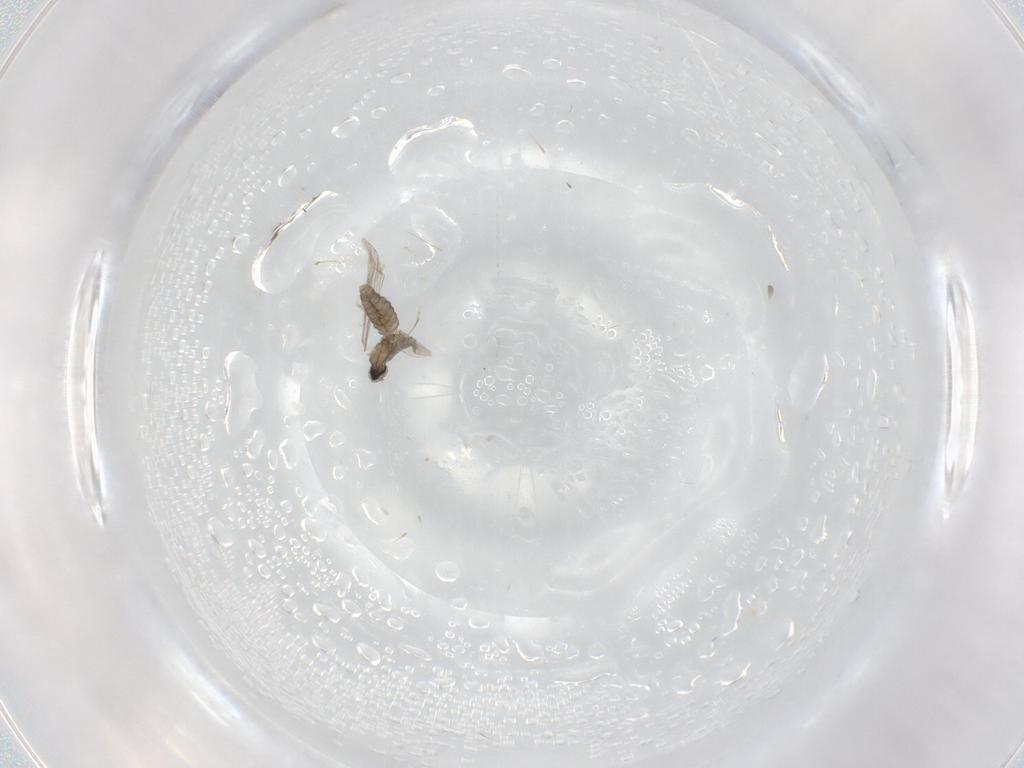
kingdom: Animalia
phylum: Arthropoda
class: Insecta
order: Diptera
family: Cecidomyiidae
